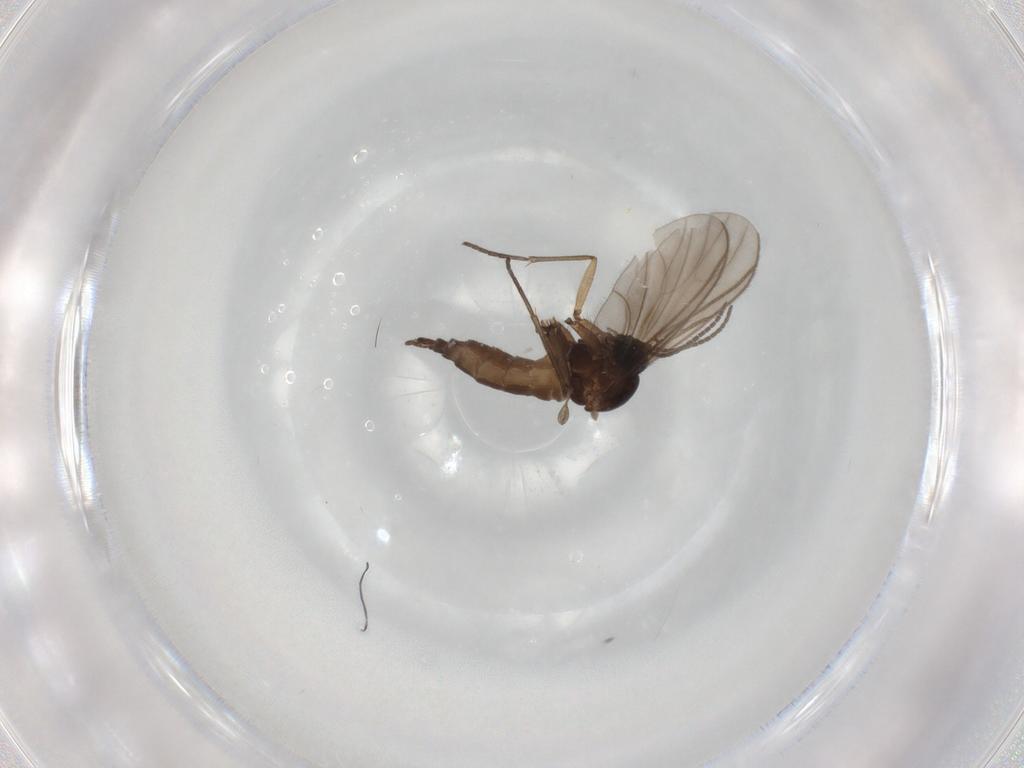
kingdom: Animalia
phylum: Arthropoda
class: Insecta
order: Diptera
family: Sciaridae
